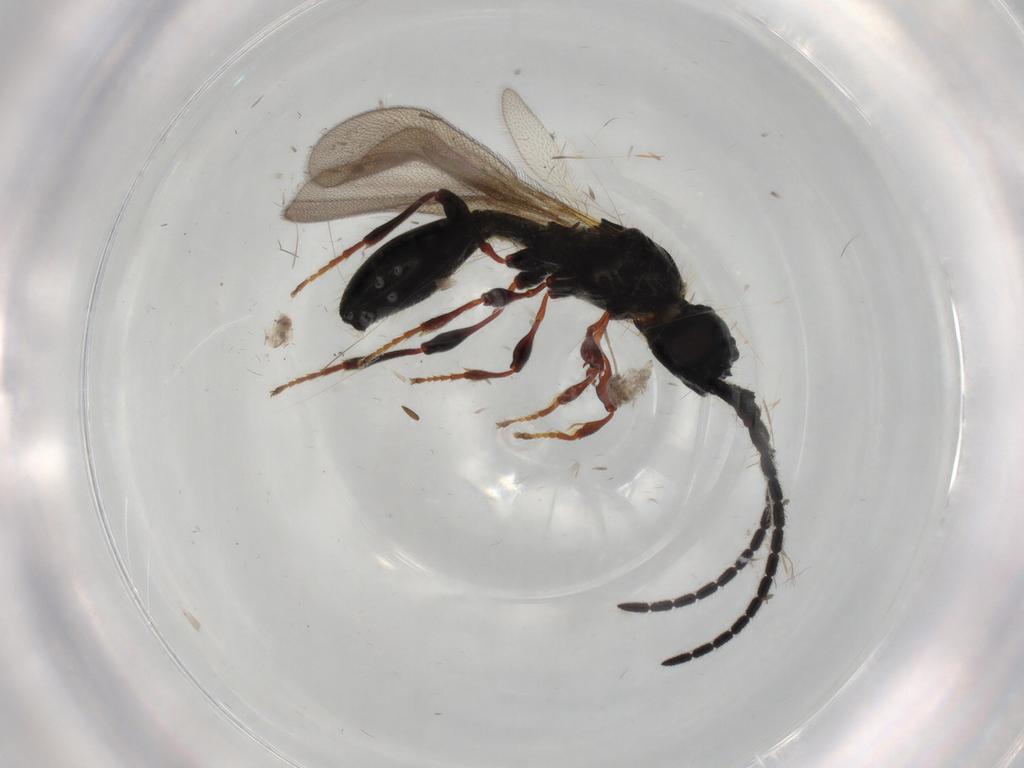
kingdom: Animalia
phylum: Arthropoda
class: Insecta
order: Hymenoptera
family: Diapriidae
